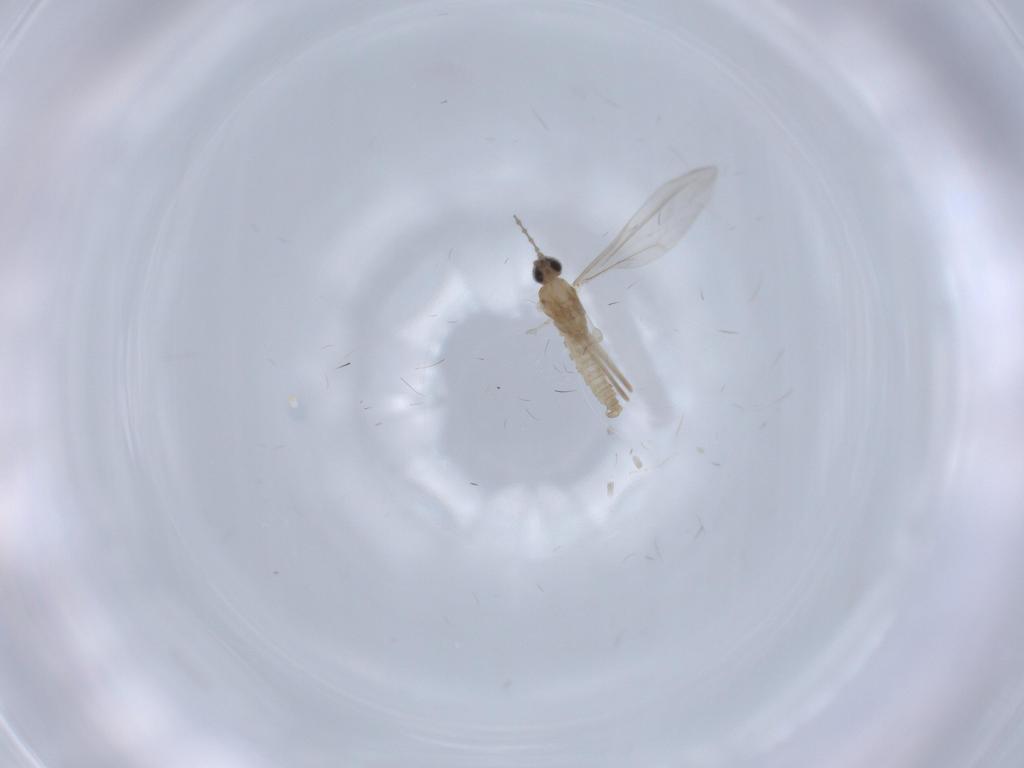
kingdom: Animalia
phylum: Arthropoda
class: Insecta
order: Diptera
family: Cecidomyiidae
